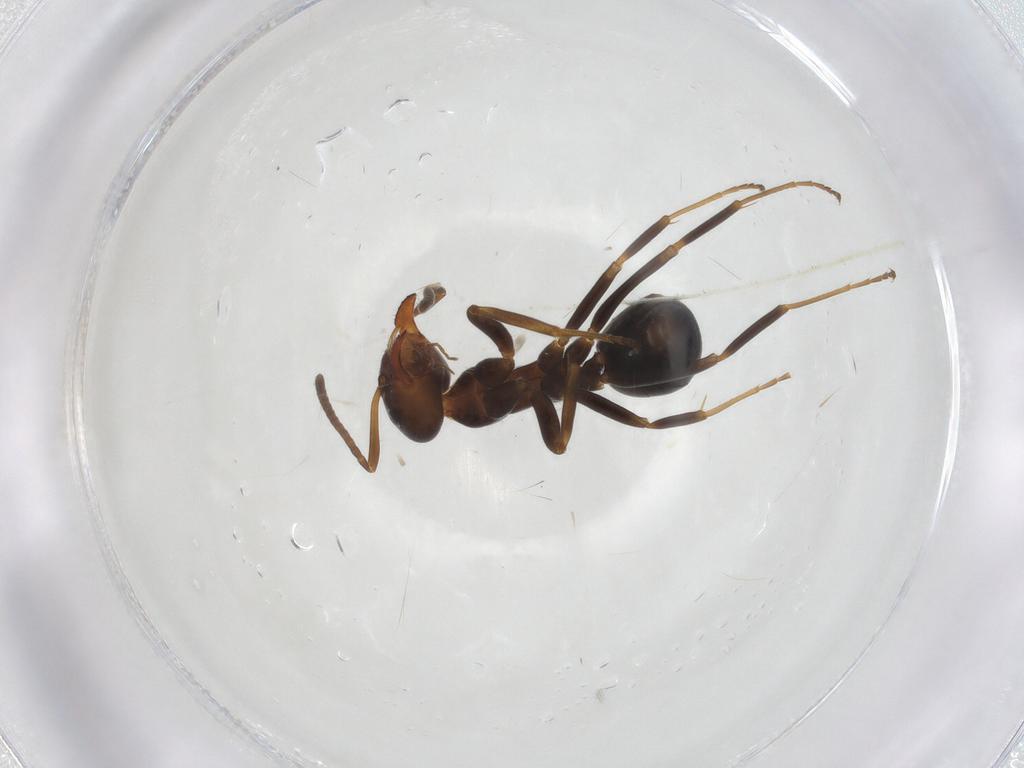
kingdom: Animalia
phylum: Arthropoda
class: Insecta
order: Hymenoptera
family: Formicidae
